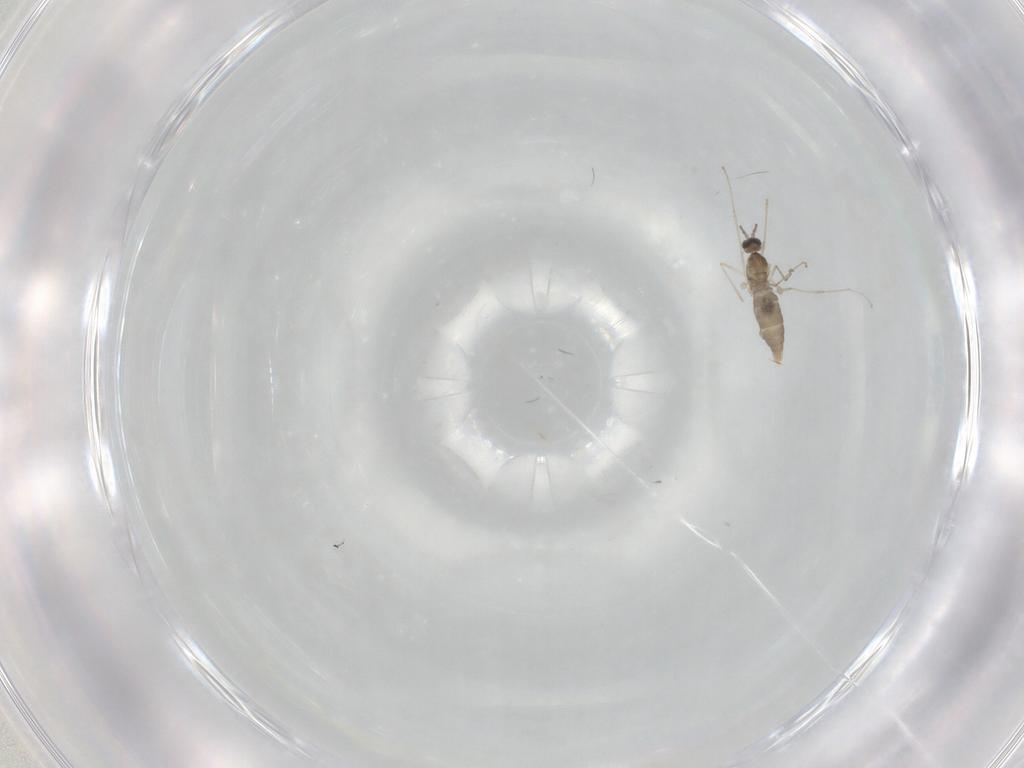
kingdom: Animalia
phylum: Arthropoda
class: Insecta
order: Diptera
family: Cecidomyiidae
